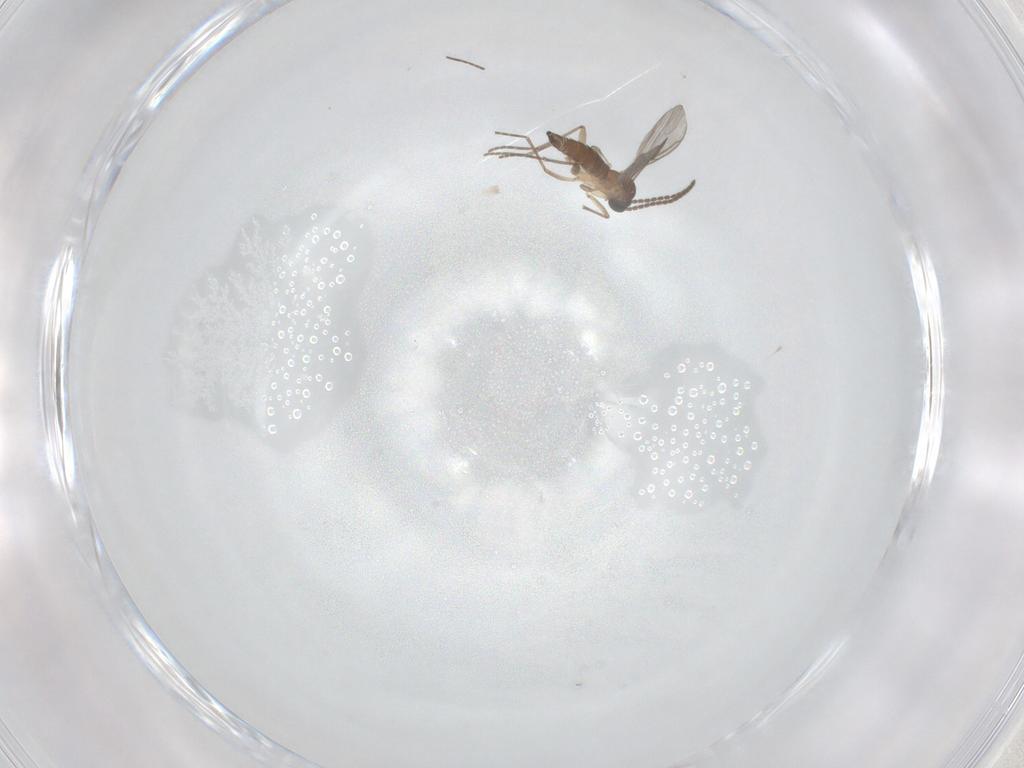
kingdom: Animalia
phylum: Arthropoda
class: Insecta
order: Diptera
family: Sciaridae
